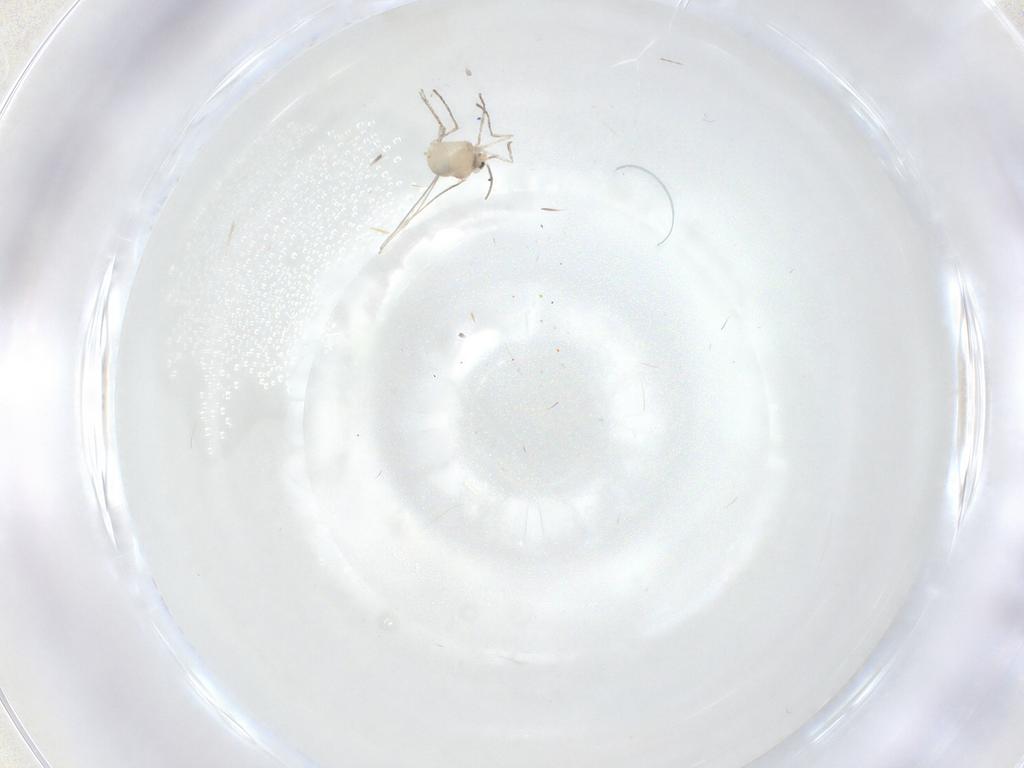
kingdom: Animalia
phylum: Arthropoda
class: Insecta
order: Diptera
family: Cecidomyiidae
